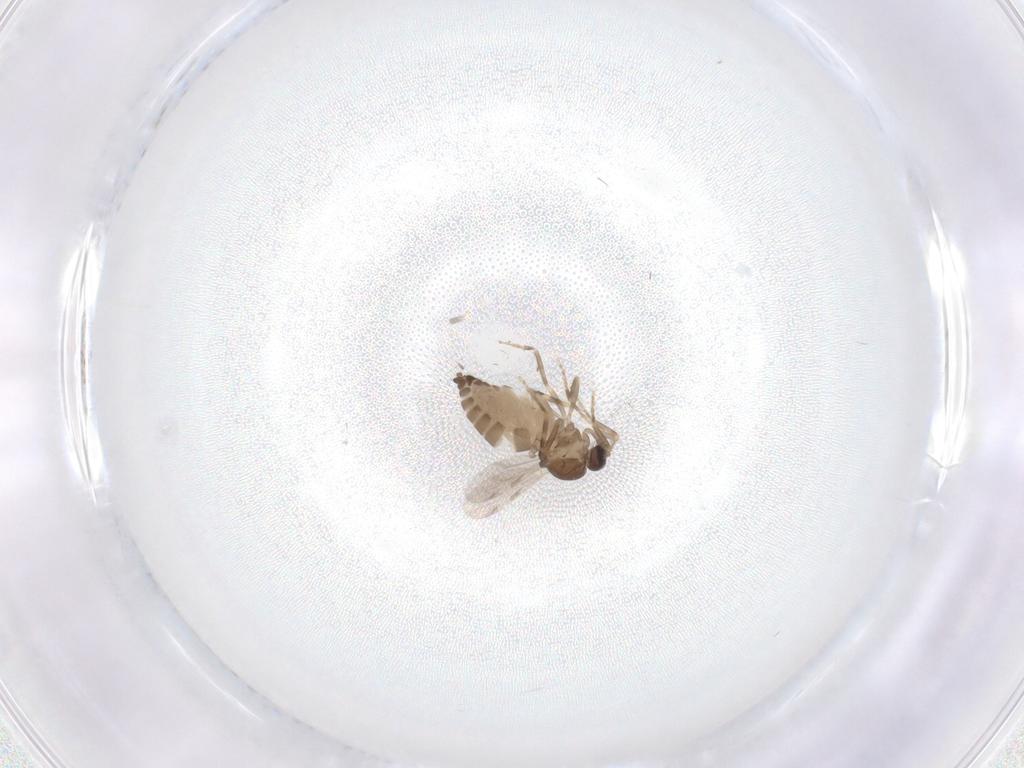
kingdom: Animalia
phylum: Arthropoda
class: Insecta
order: Diptera
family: Ceratopogonidae
